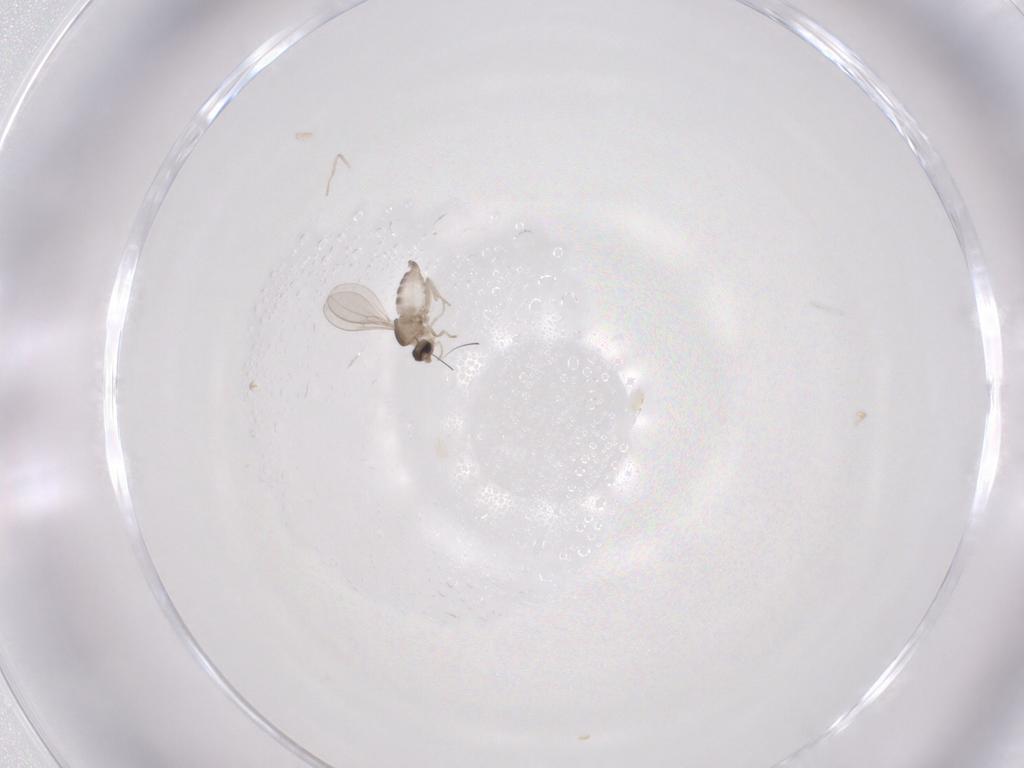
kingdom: Animalia
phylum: Arthropoda
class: Insecta
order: Diptera
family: Cecidomyiidae
